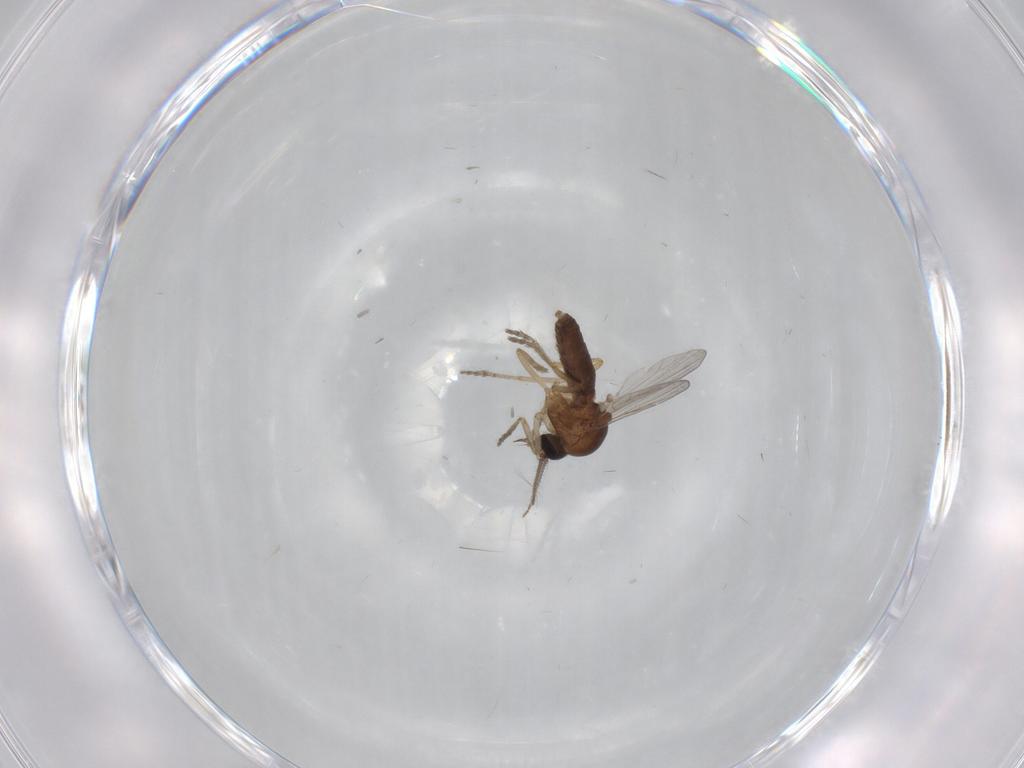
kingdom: Animalia
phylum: Arthropoda
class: Insecta
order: Diptera
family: Ceratopogonidae
